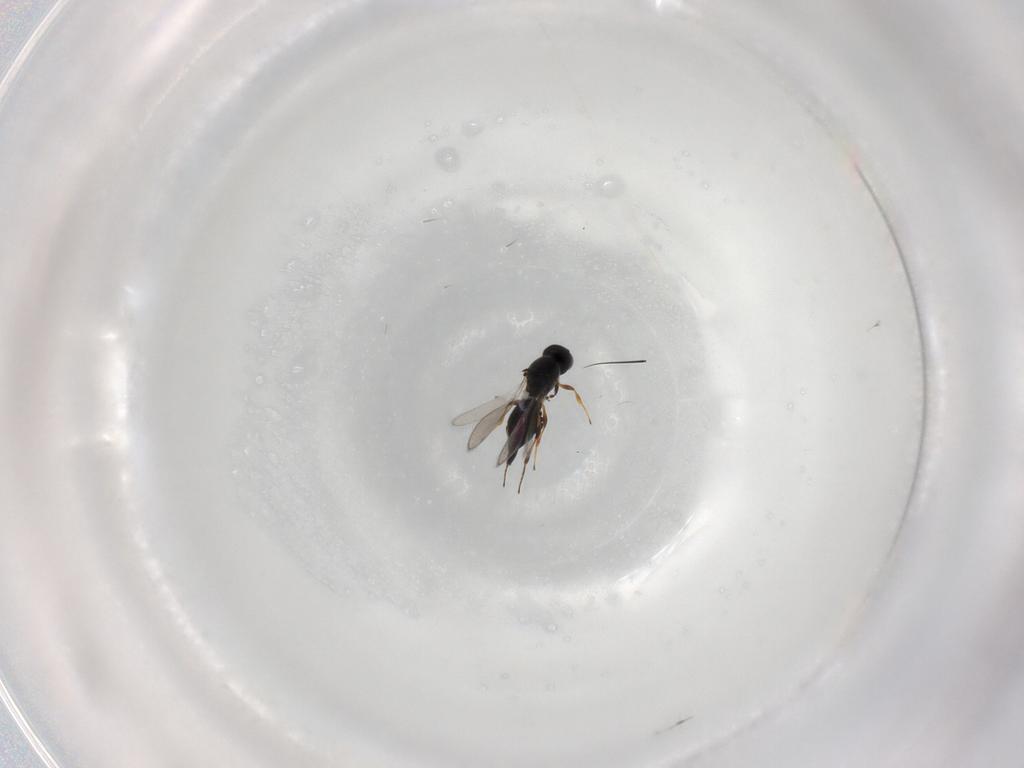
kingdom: Animalia
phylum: Arthropoda
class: Insecta
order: Hymenoptera
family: Platygastridae
